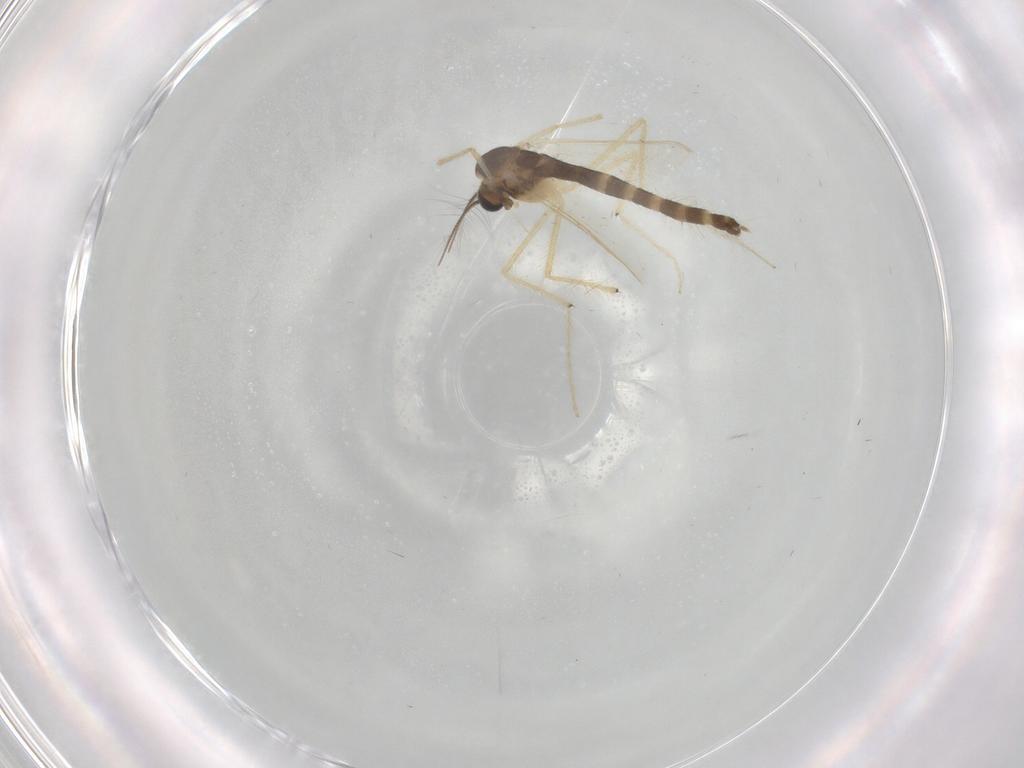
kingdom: Animalia
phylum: Arthropoda
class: Insecta
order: Diptera
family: Chironomidae
